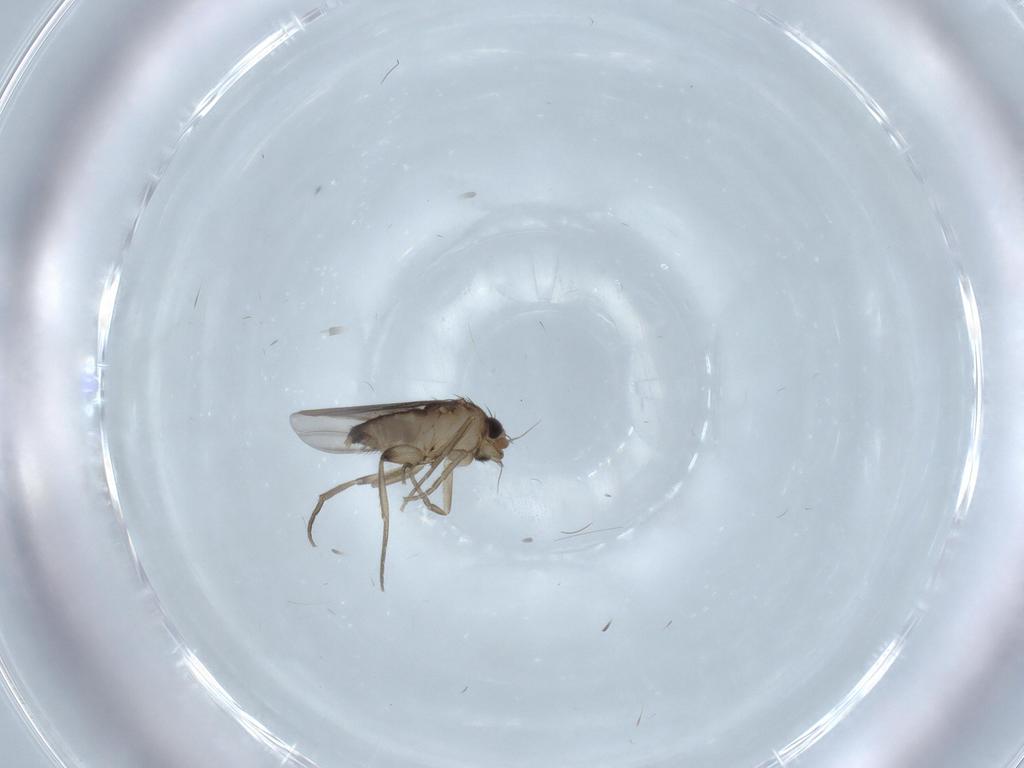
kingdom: Animalia
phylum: Arthropoda
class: Insecta
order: Diptera
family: Phoridae
